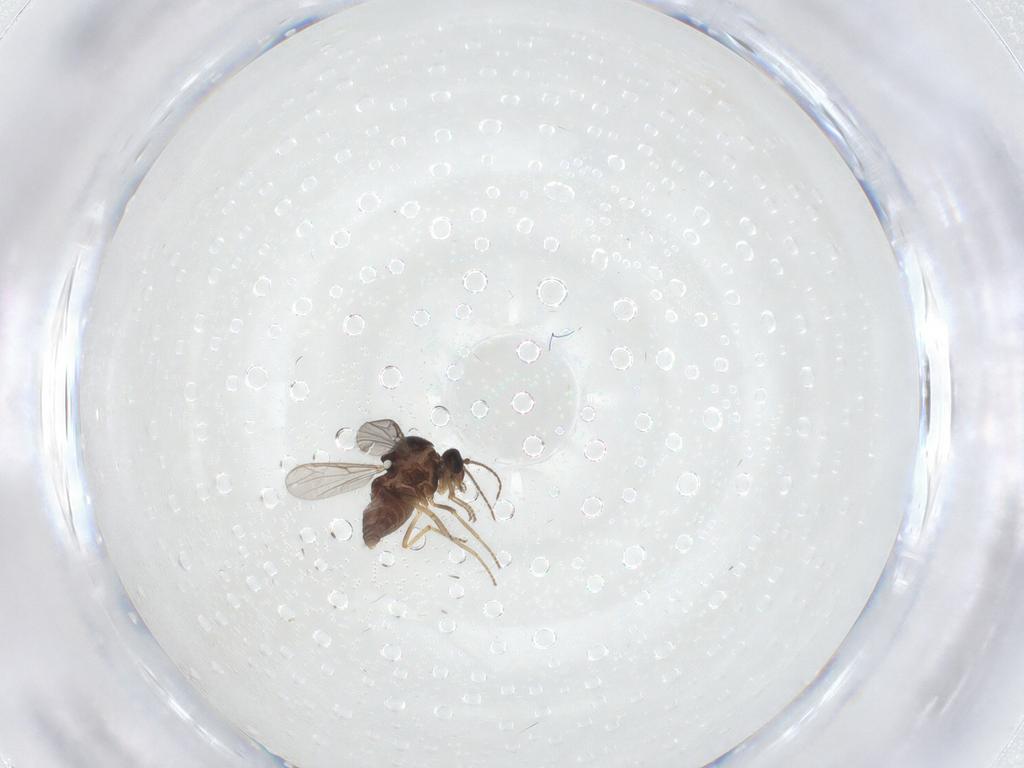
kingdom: Animalia
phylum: Arthropoda
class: Insecta
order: Diptera
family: Ceratopogonidae
